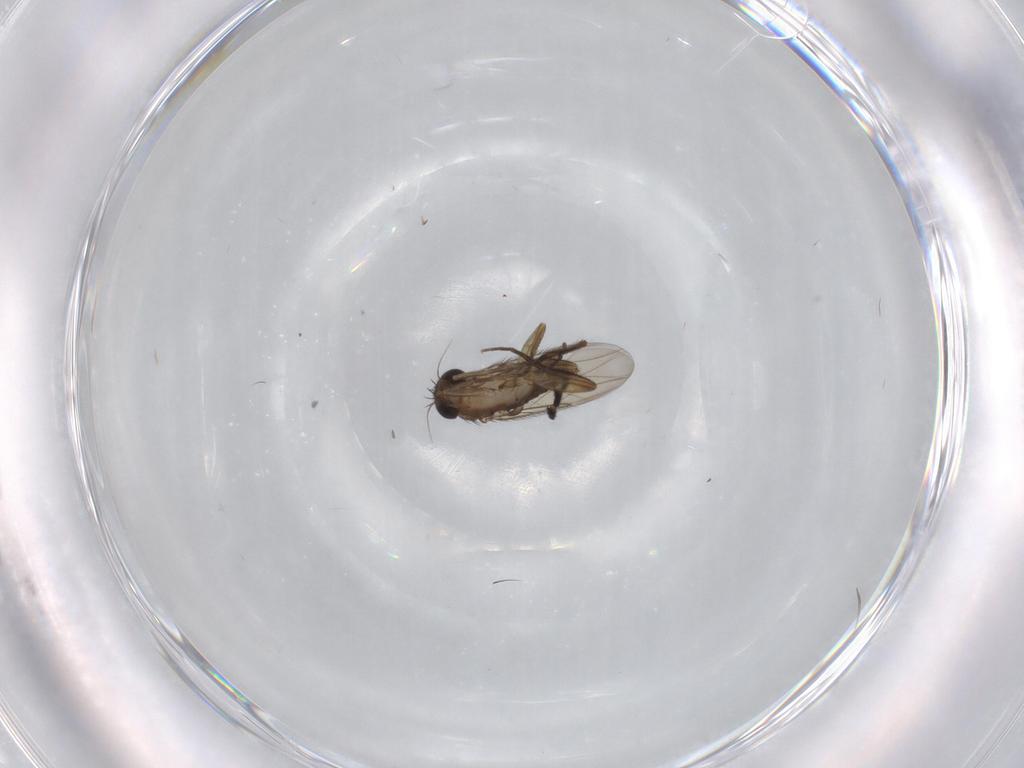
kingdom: Animalia
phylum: Arthropoda
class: Insecta
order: Diptera
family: Phoridae
